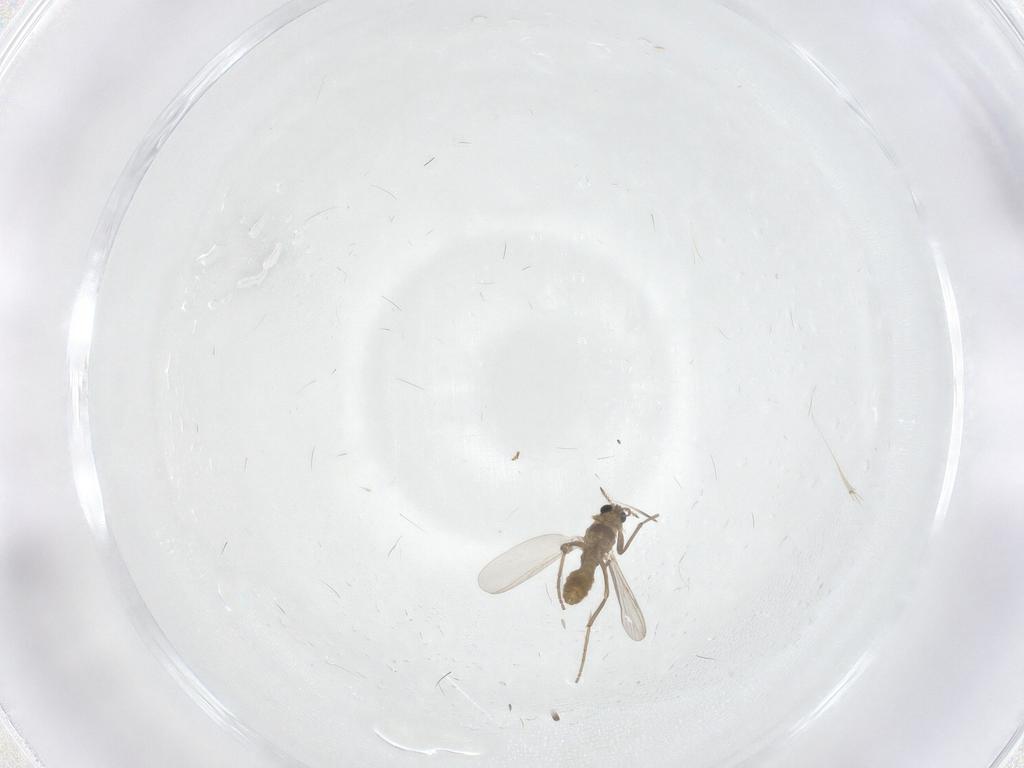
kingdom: Animalia
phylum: Arthropoda
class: Insecta
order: Diptera
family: Chironomidae
